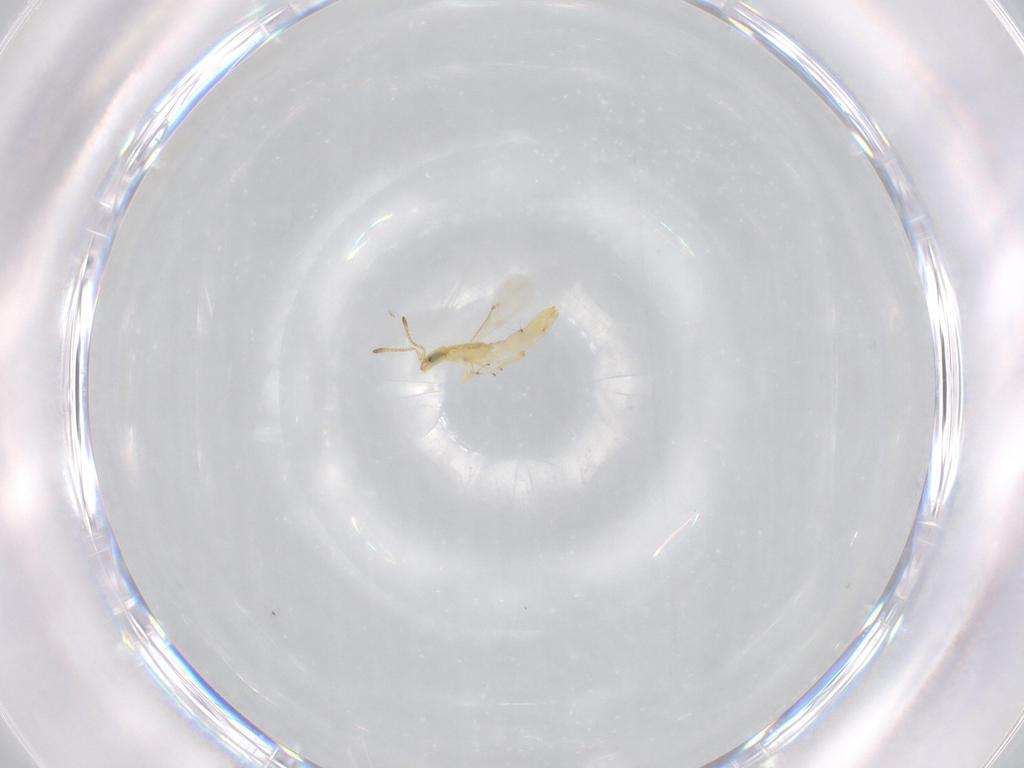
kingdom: Animalia
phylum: Arthropoda
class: Insecta
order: Hymenoptera
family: Encyrtidae
